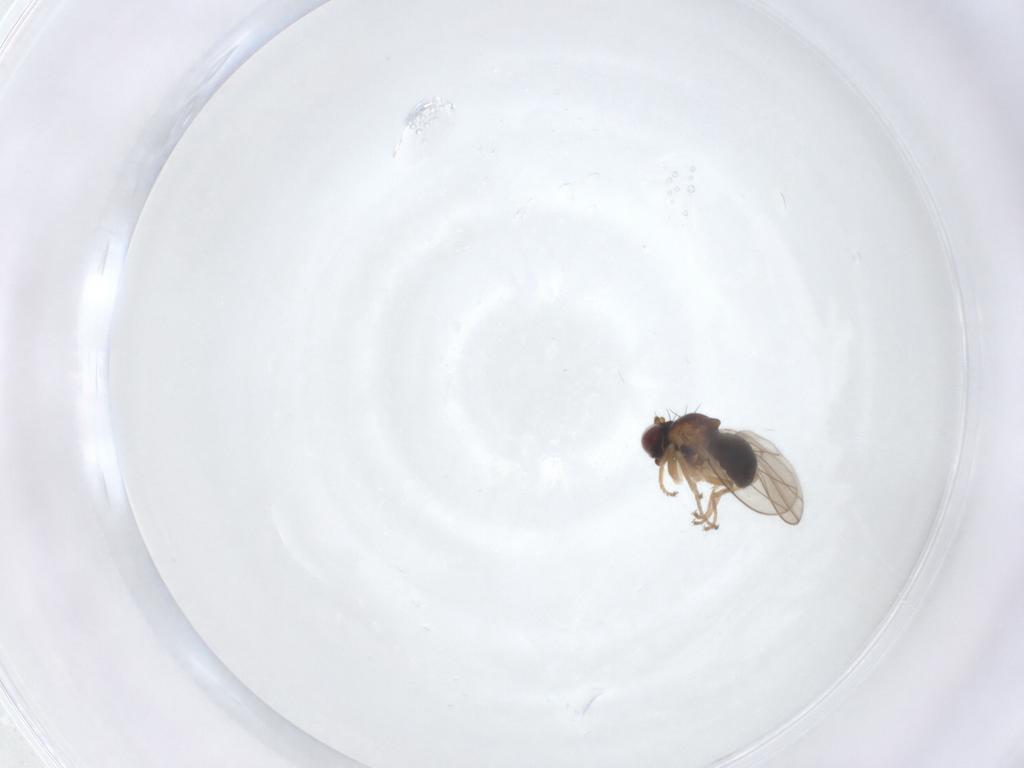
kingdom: Animalia
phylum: Arthropoda
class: Insecta
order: Diptera
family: Ephydridae
